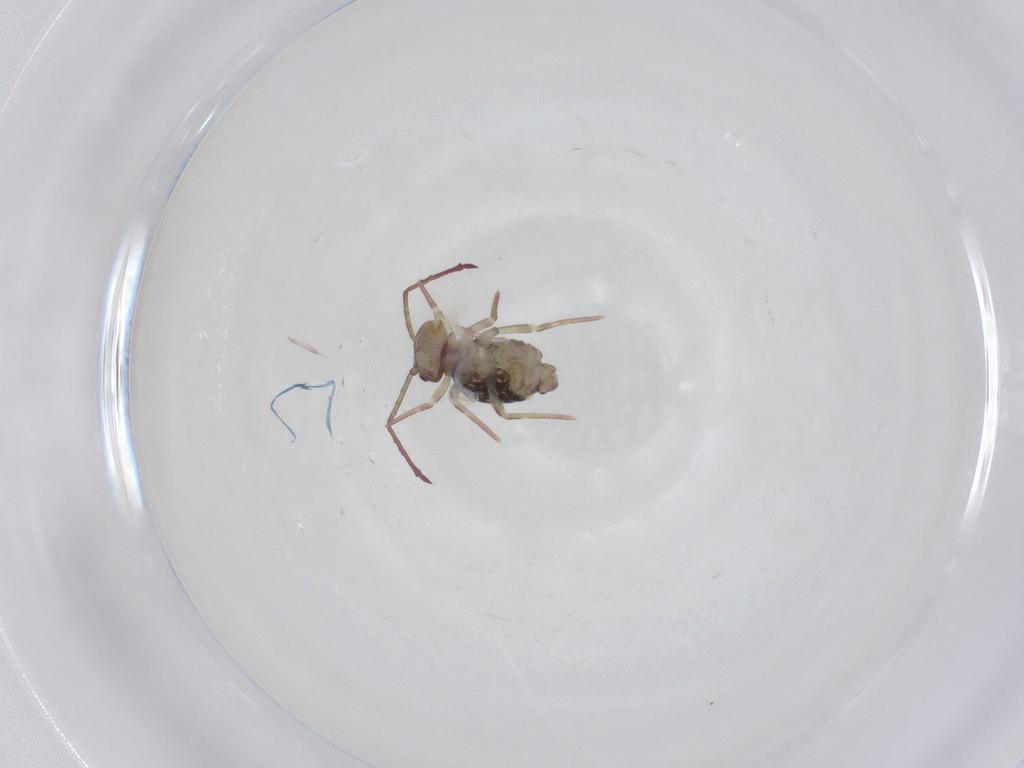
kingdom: Animalia
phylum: Arthropoda
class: Collembola
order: Symphypleona
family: Dicyrtomidae
